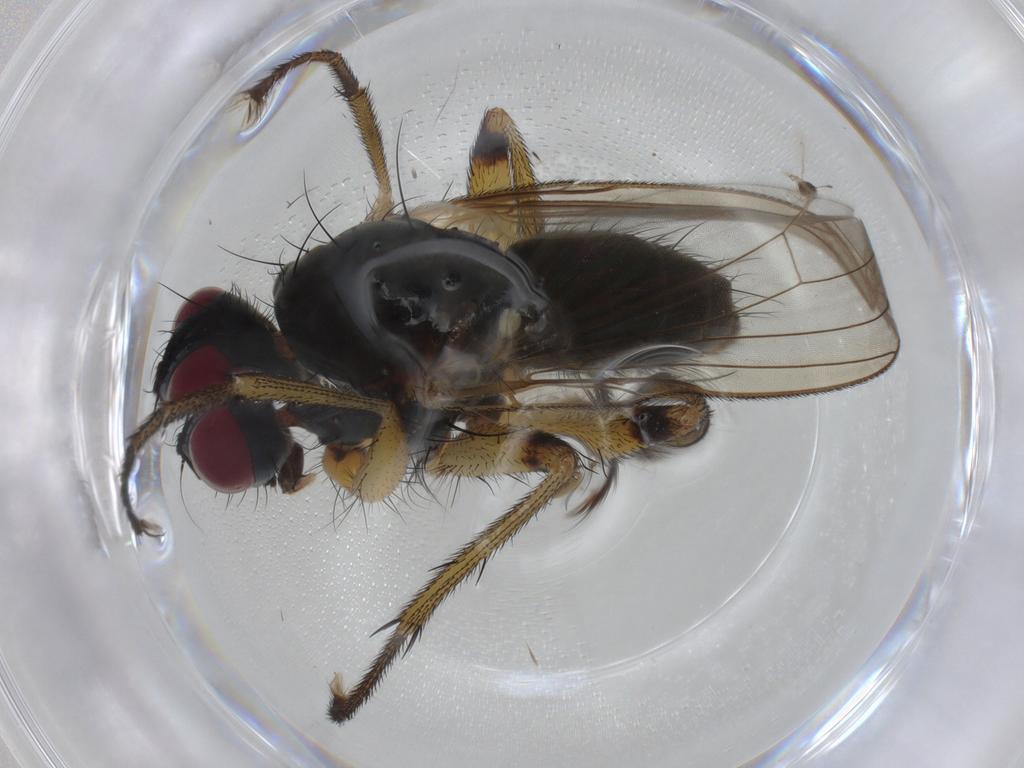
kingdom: Animalia
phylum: Arthropoda
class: Insecta
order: Diptera
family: Muscidae
